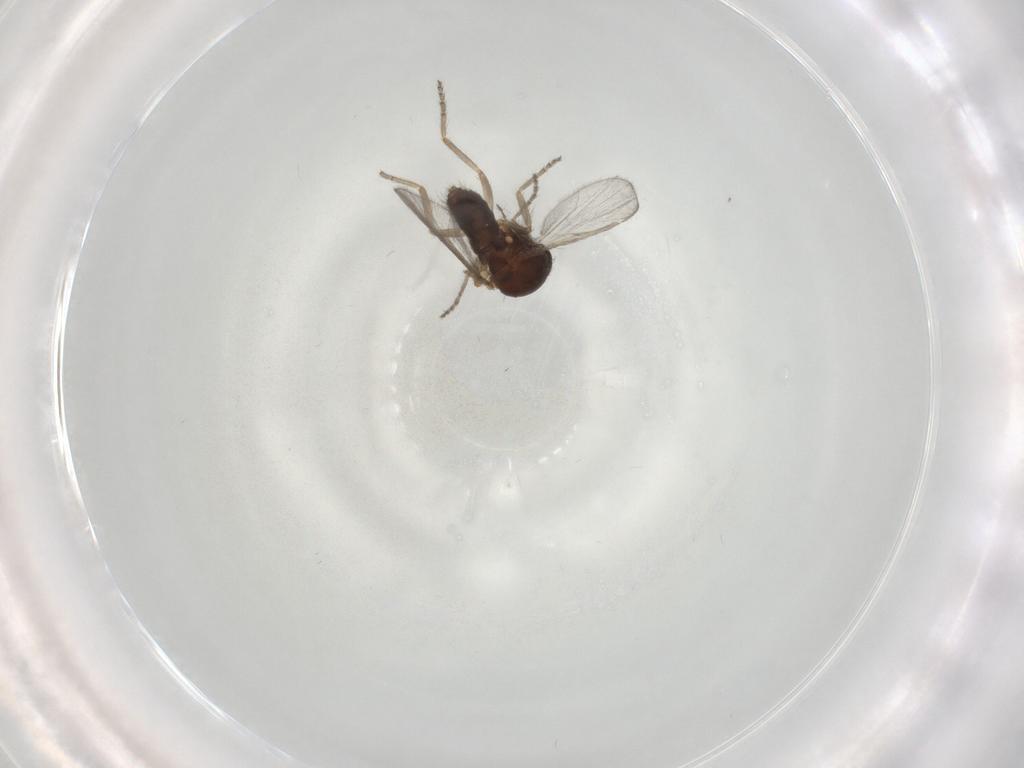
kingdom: Animalia
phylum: Arthropoda
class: Insecta
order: Diptera
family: Ceratopogonidae
